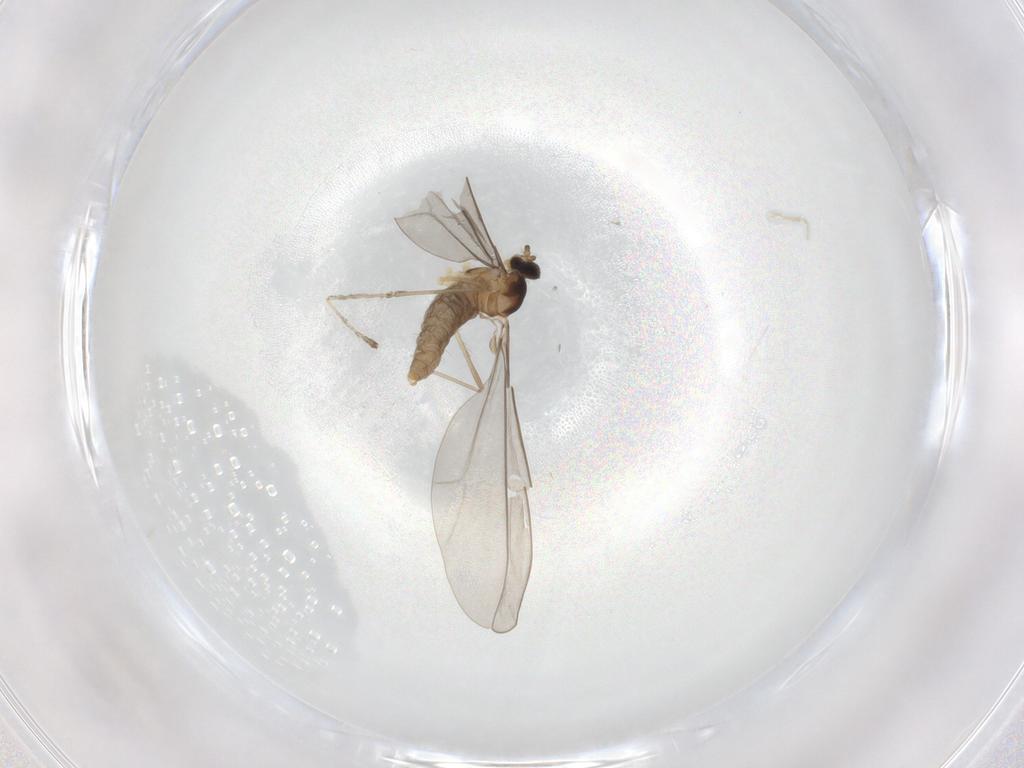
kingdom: Animalia
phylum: Arthropoda
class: Insecta
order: Diptera
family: Cecidomyiidae
